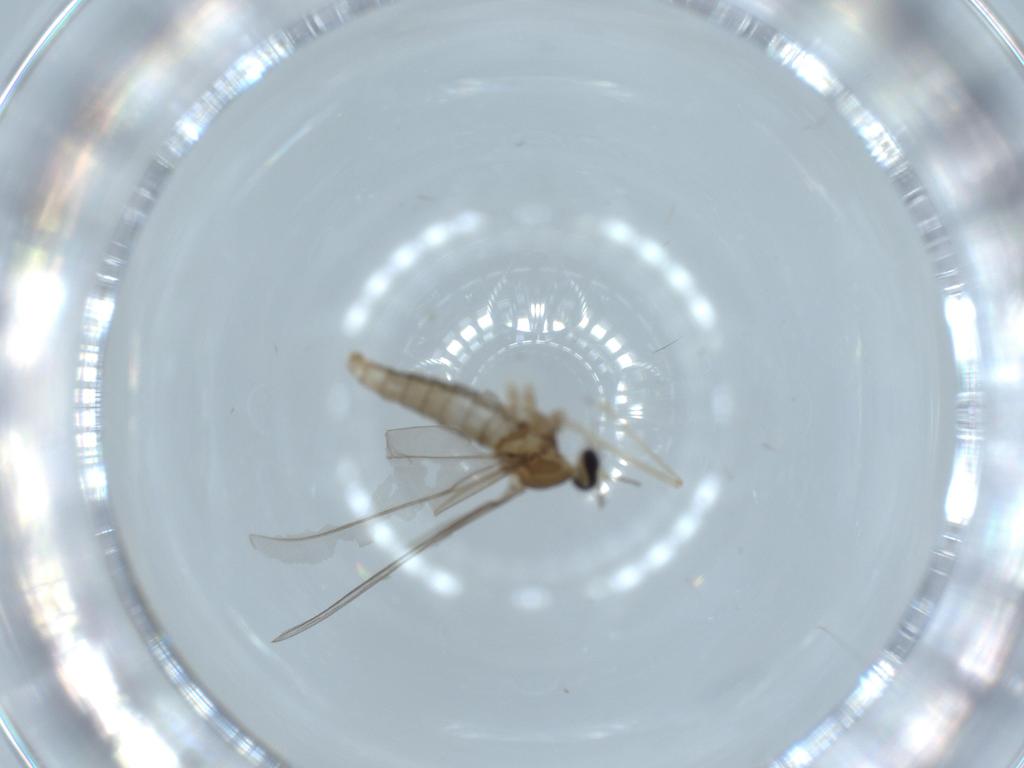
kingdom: Animalia
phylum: Arthropoda
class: Insecta
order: Diptera
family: Cecidomyiidae
